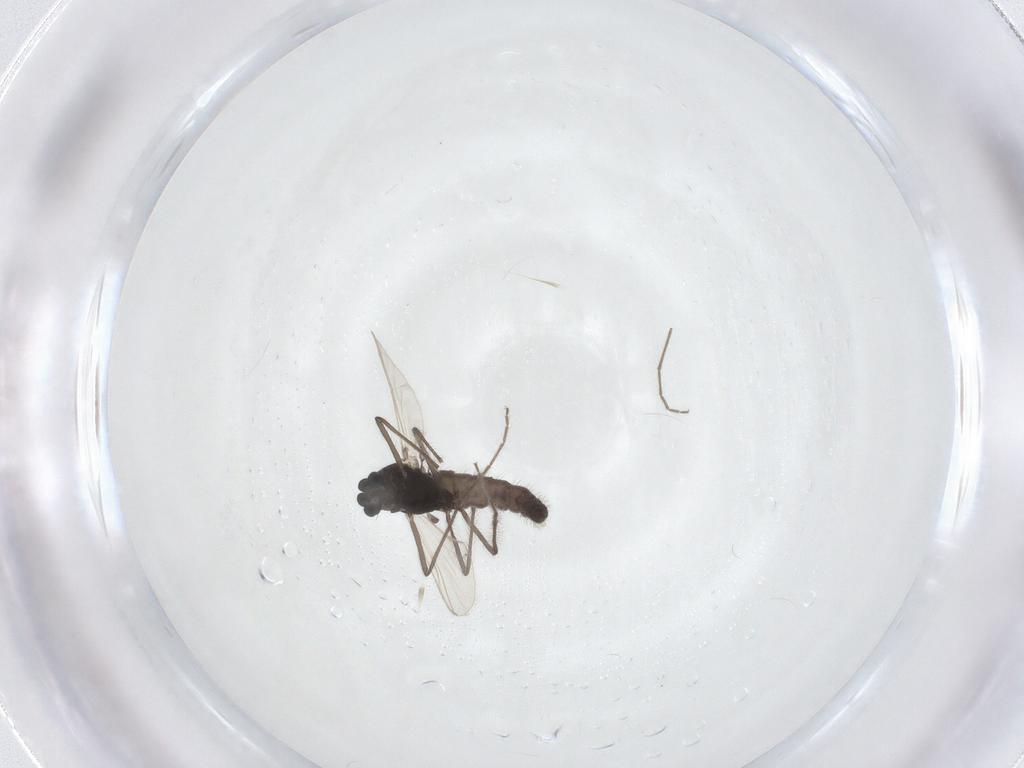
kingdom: Animalia
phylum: Arthropoda
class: Insecta
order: Diptera
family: Chironomidae
